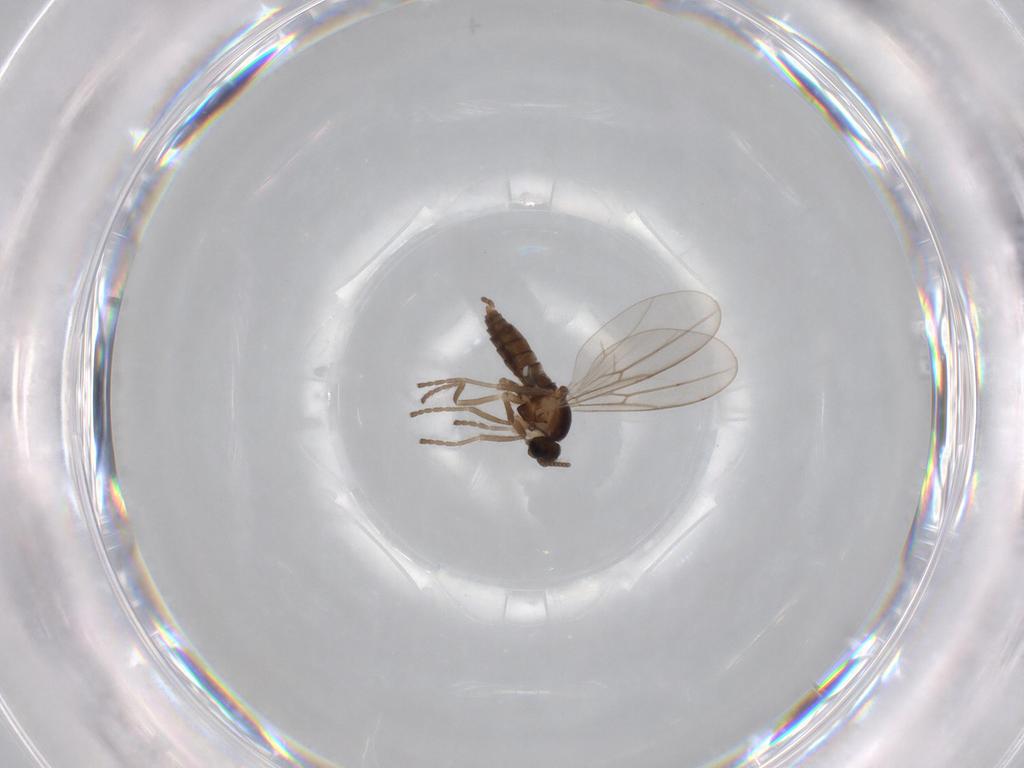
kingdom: Animalia
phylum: Arthropoda
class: Insecta
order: Diptera
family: Cecidomyiidae
